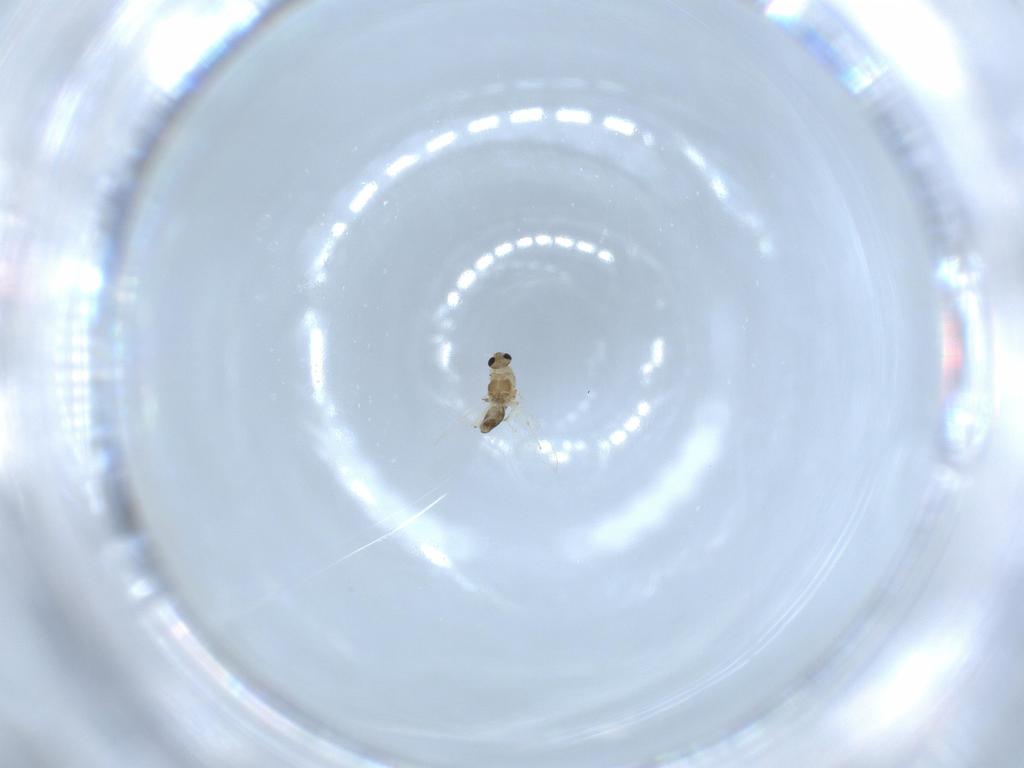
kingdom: Animalia
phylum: Arthropoda
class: Insecta
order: Diptera
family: Chironomidae
